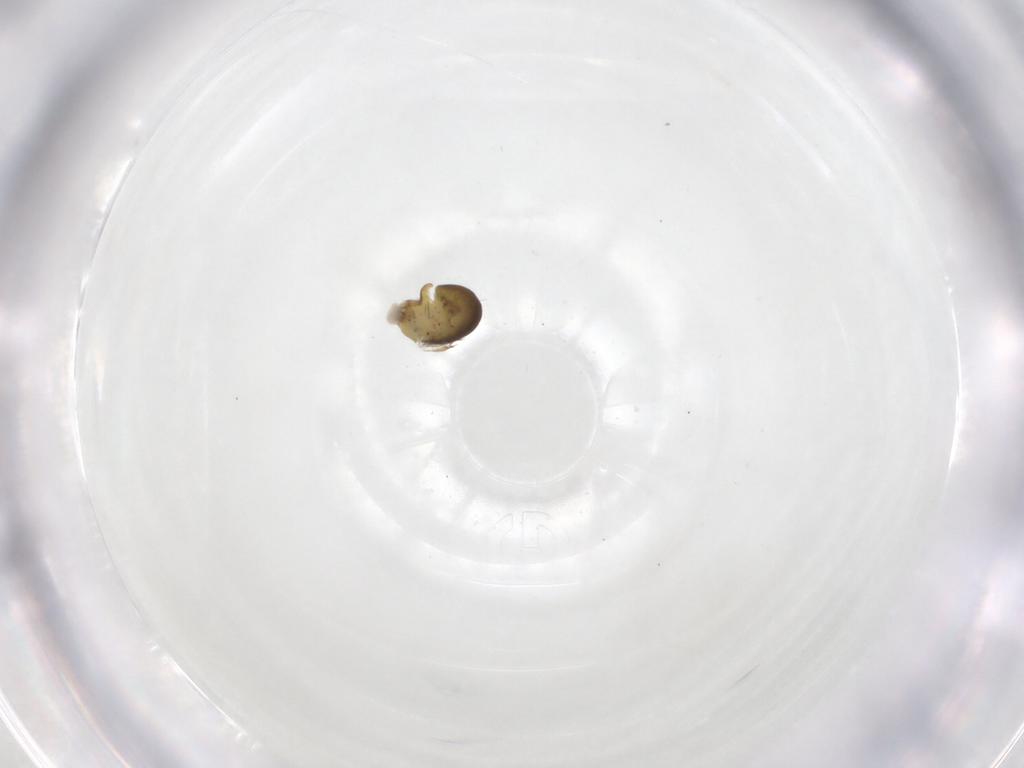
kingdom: Animalia
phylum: Arthropoda
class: Insecta
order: Hymenoptera
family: Dryinidae
